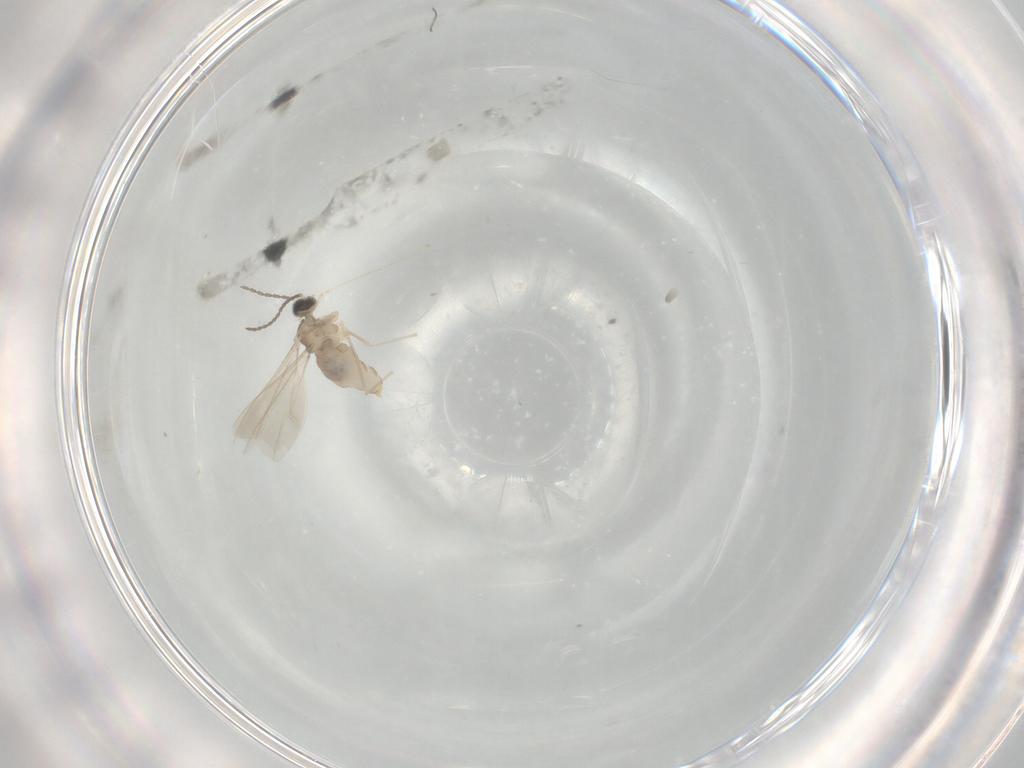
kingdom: Animalia
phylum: Arthropoda
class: Insecta
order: Diptera
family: Cecidomyiidae
